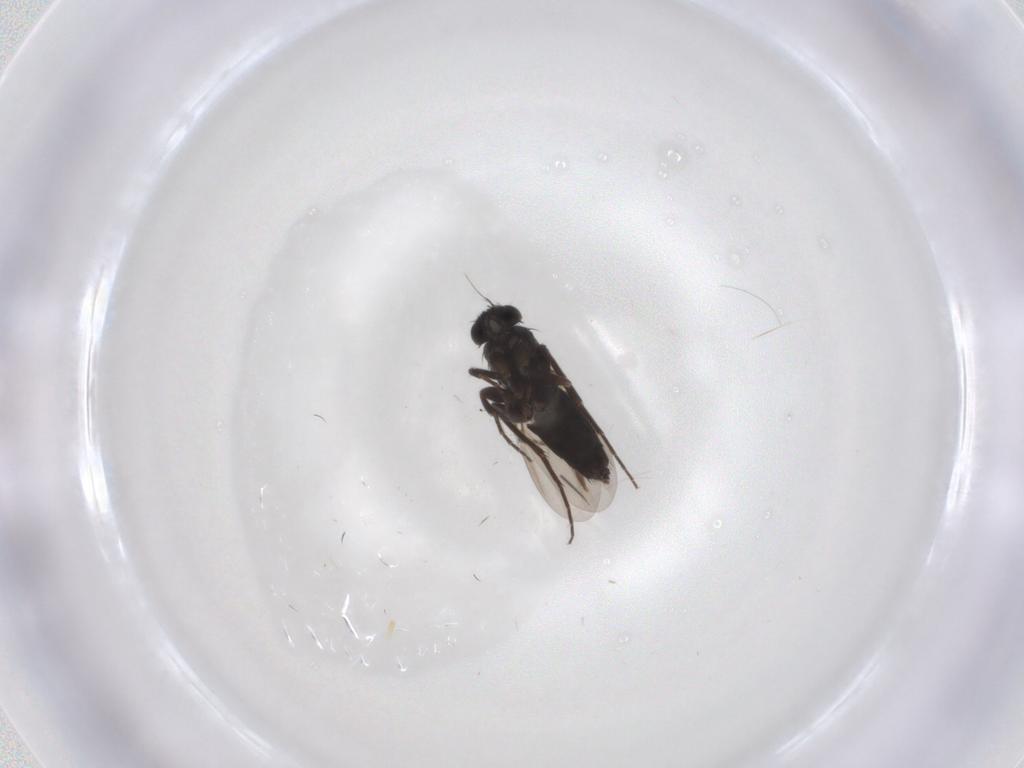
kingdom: Animalia
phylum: Arthropoda
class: Insecta
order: Diptera
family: Phoridae
